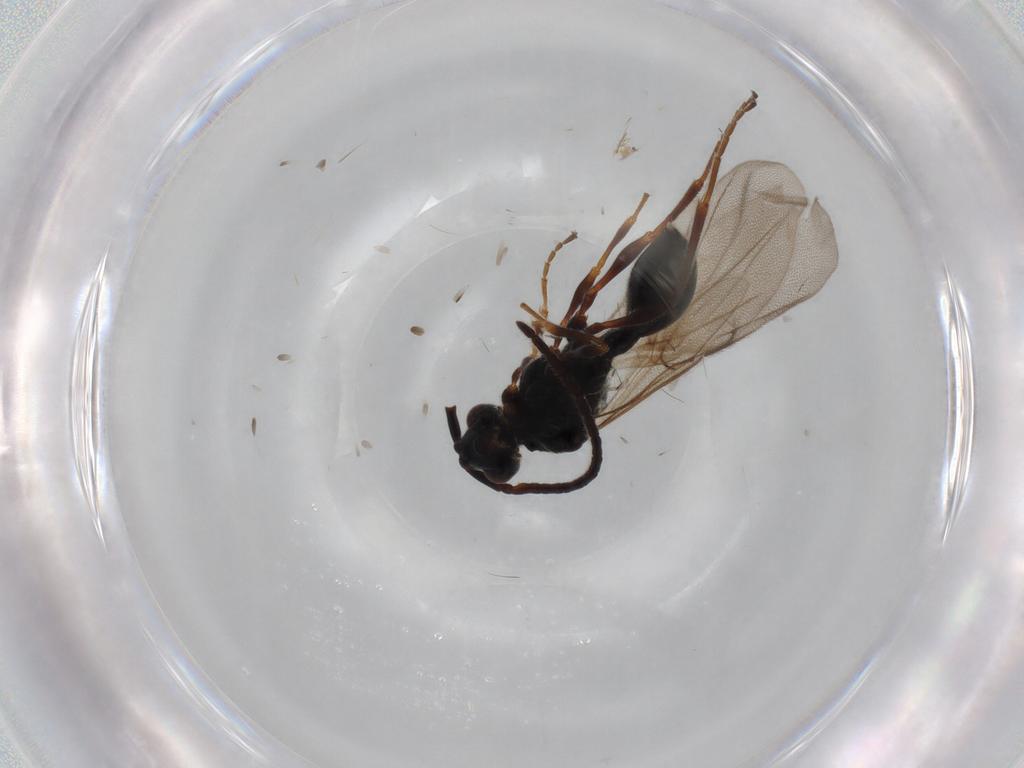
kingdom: Animalia
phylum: Arthropoda
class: Insecta
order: Hymenoptera
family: Diapriidae
